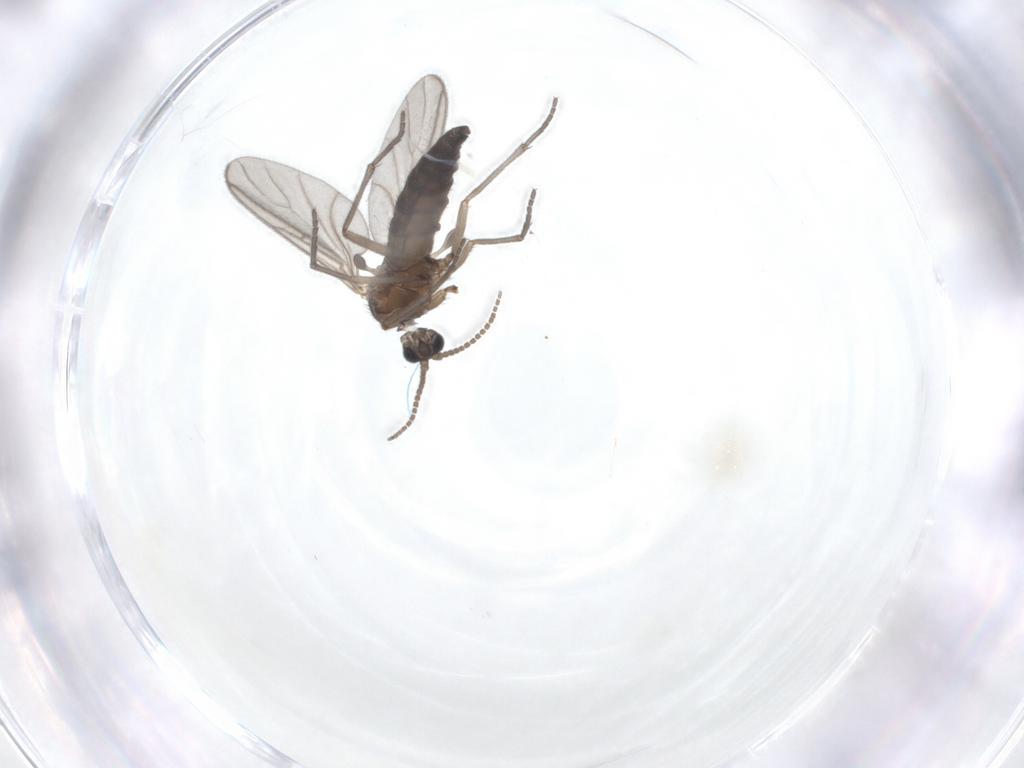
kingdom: Animalia
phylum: Arthropoda
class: Insecta
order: Diptera
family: Sciaridae
